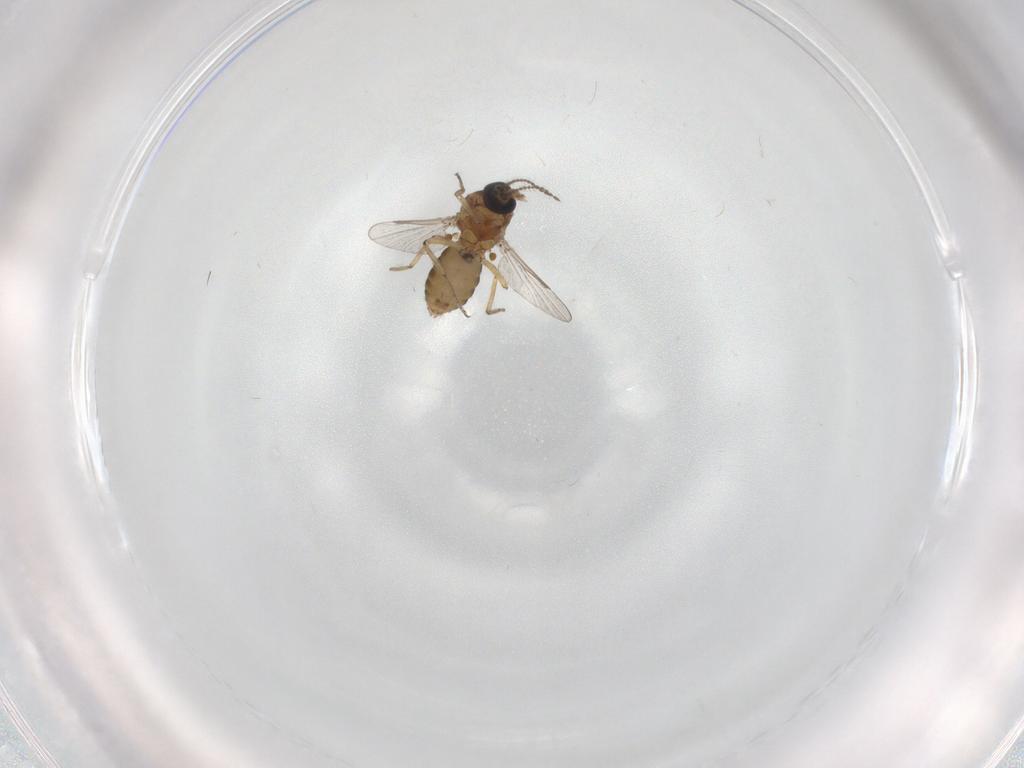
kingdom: Animalia
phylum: Arthropoda
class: Insecta
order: Diptera
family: Ceratopogonidae
